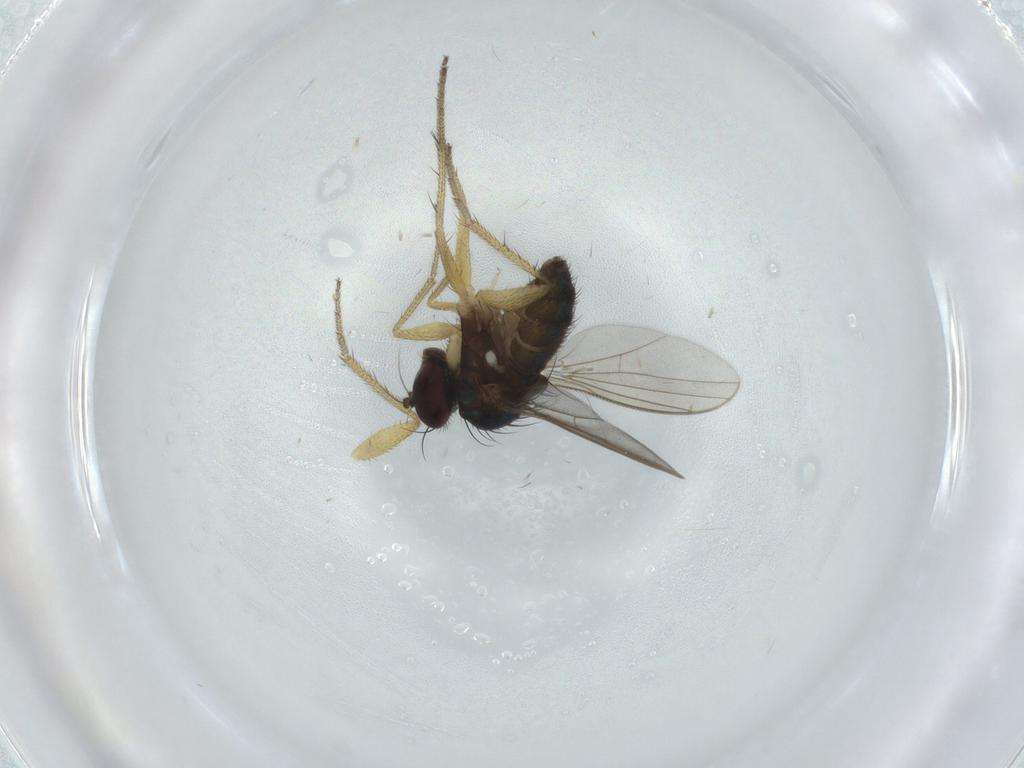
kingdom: Animalia
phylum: Arthropoda
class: Insecta
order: Diptera
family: Dolichopodidae
